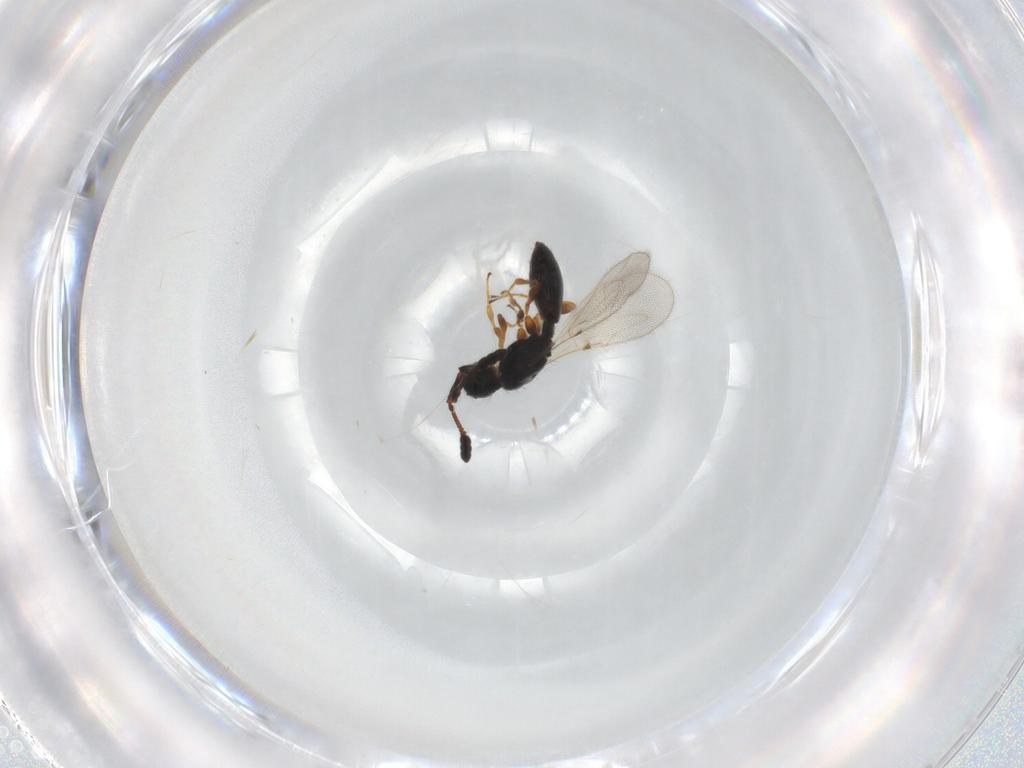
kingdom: Animalia
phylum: Arthropoda
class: Insecta
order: Hymenoptera
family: Diapriidae
